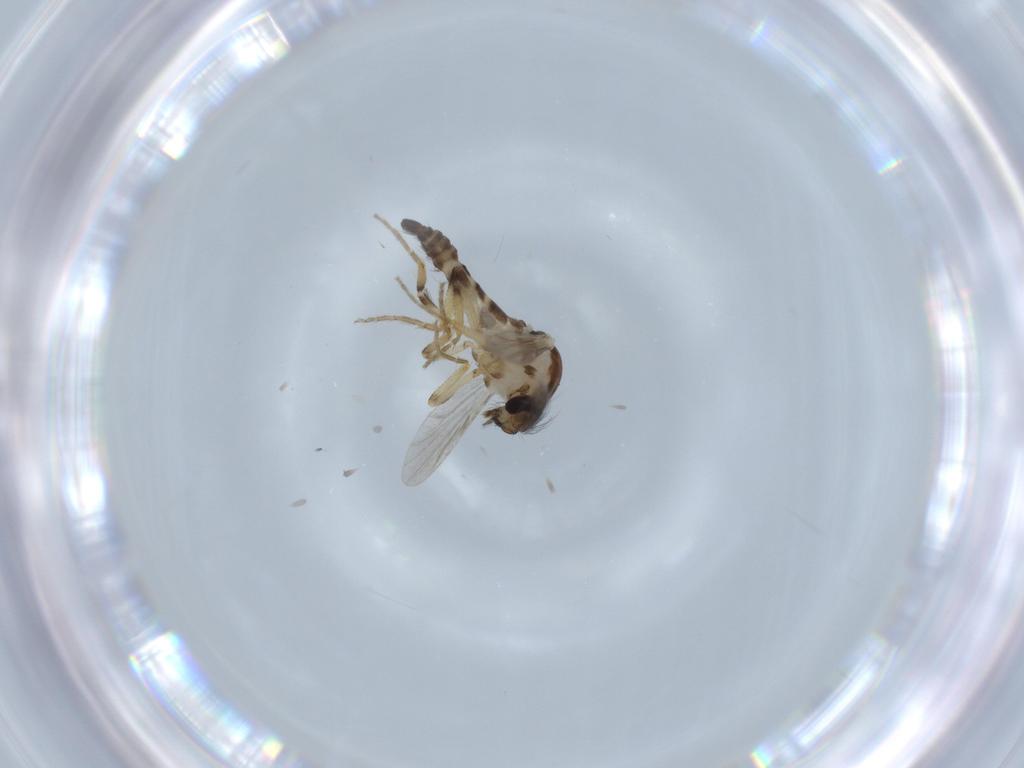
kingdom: Animalia
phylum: Arthropoda
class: Insecta
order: Diptera
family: Ceratopogonidae
